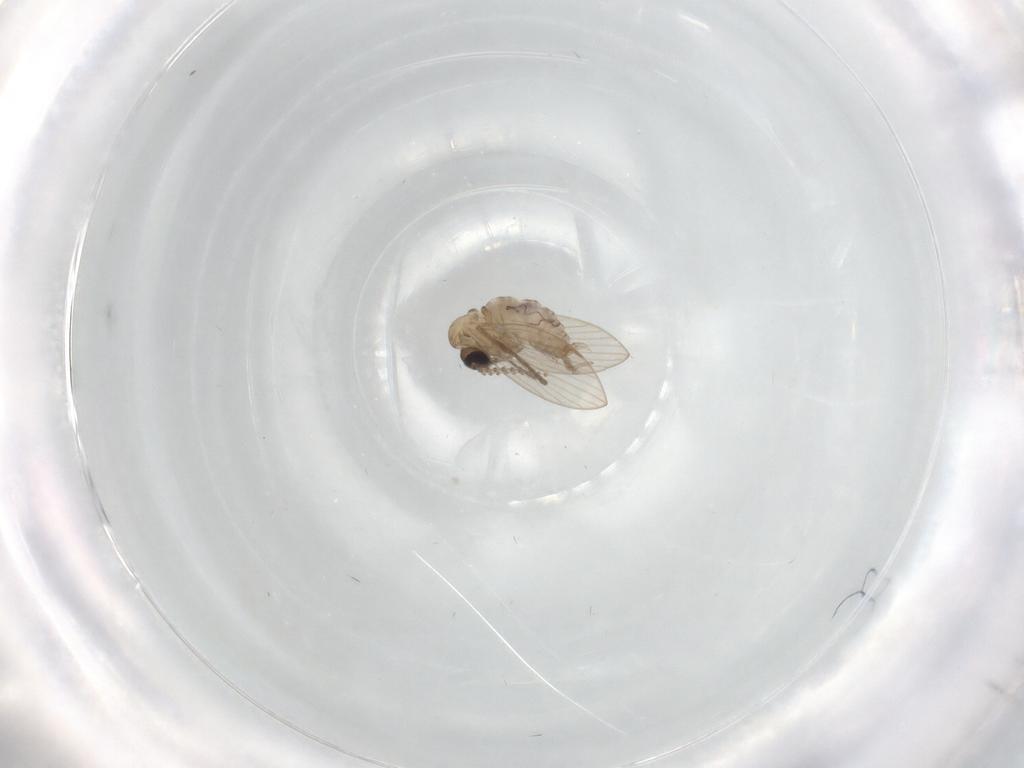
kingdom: Animalia
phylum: Arthropoda
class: Insecta
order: Diptera
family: Psychodidae
